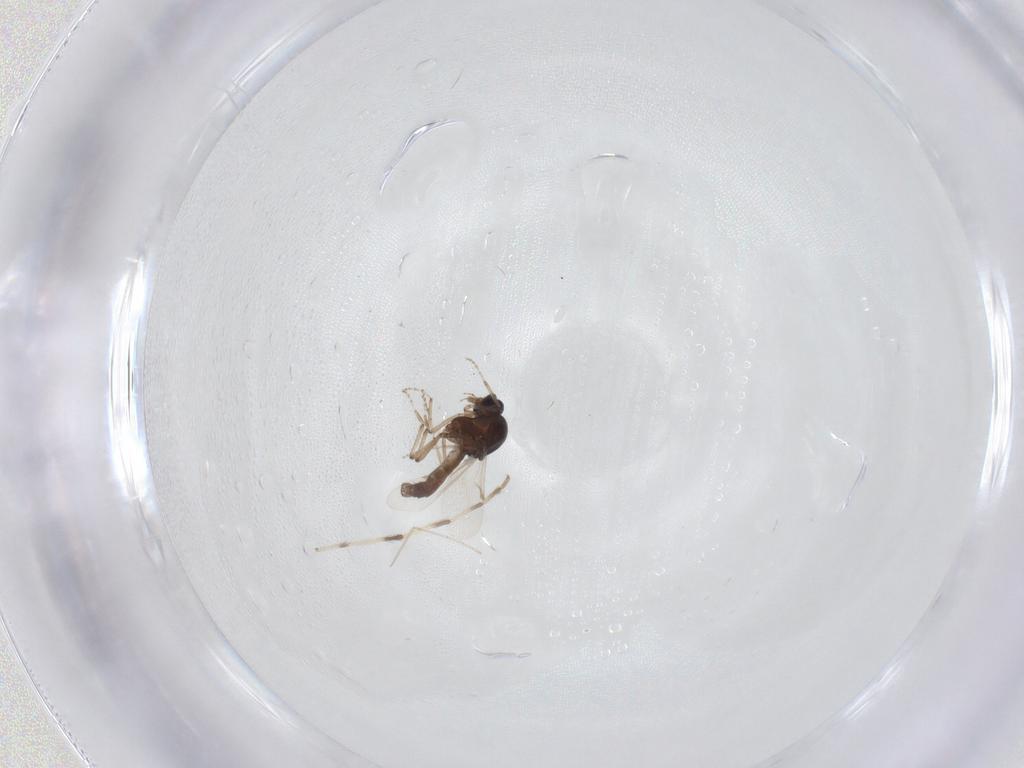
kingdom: Animalia
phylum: Arthropoda
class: Insecta
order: Diptera
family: Ceratopogonidae
